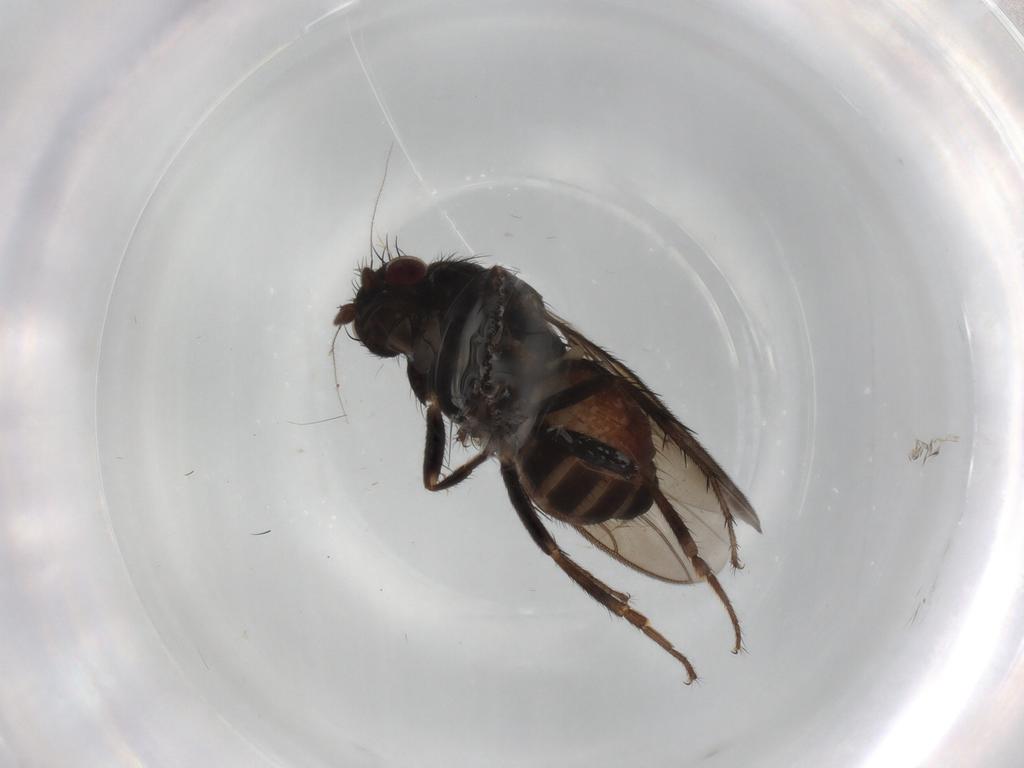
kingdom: Animalia
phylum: Arthropoda
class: Insecta
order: Diptera
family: Sphaeroceridae
